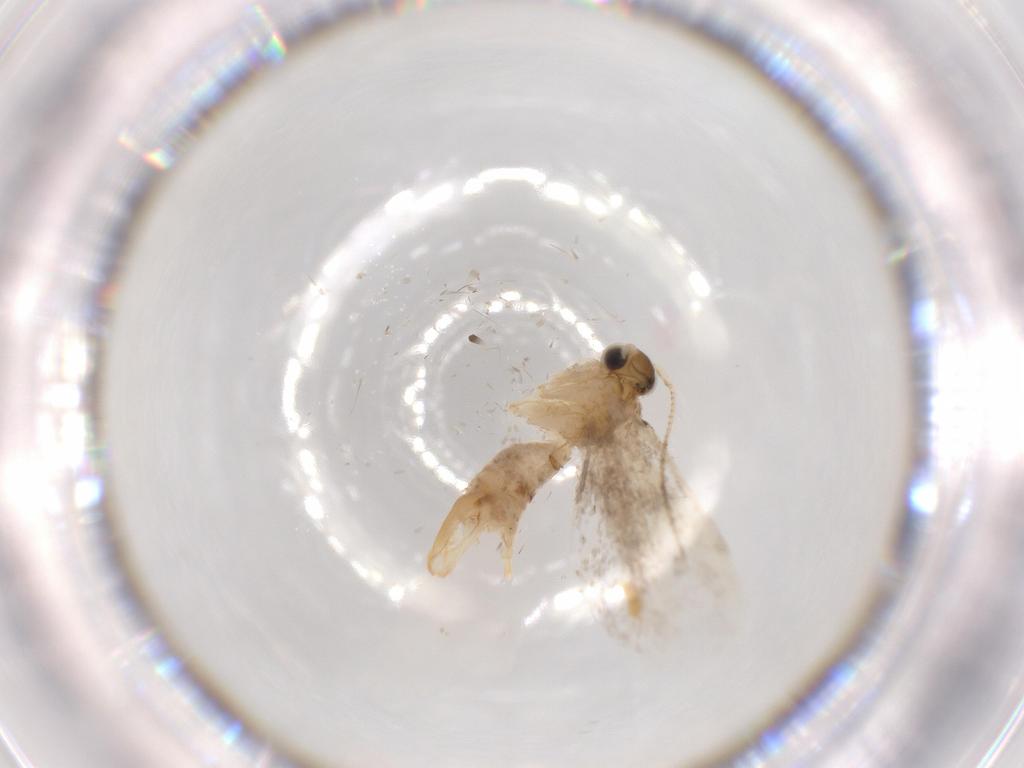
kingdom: Animalia
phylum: Arthropoda
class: Insecta
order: Lepidoptera
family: Tineidae
